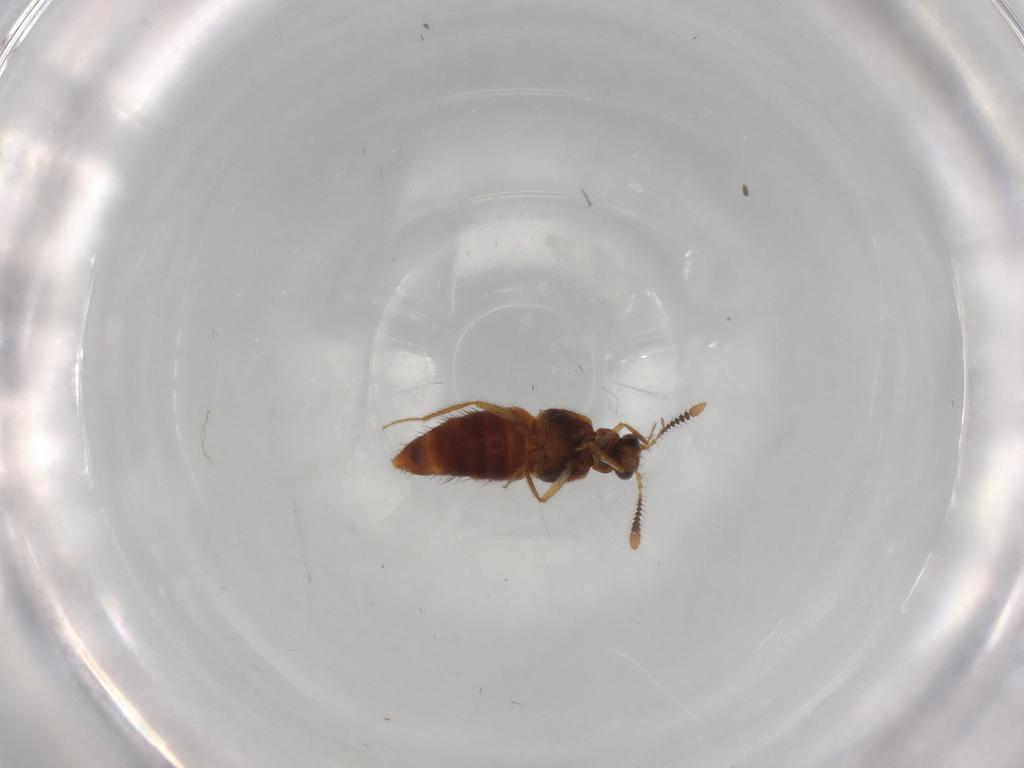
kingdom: Animalia
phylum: Arthropoda
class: Insecta
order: Coleoptera
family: Staphylinidae
